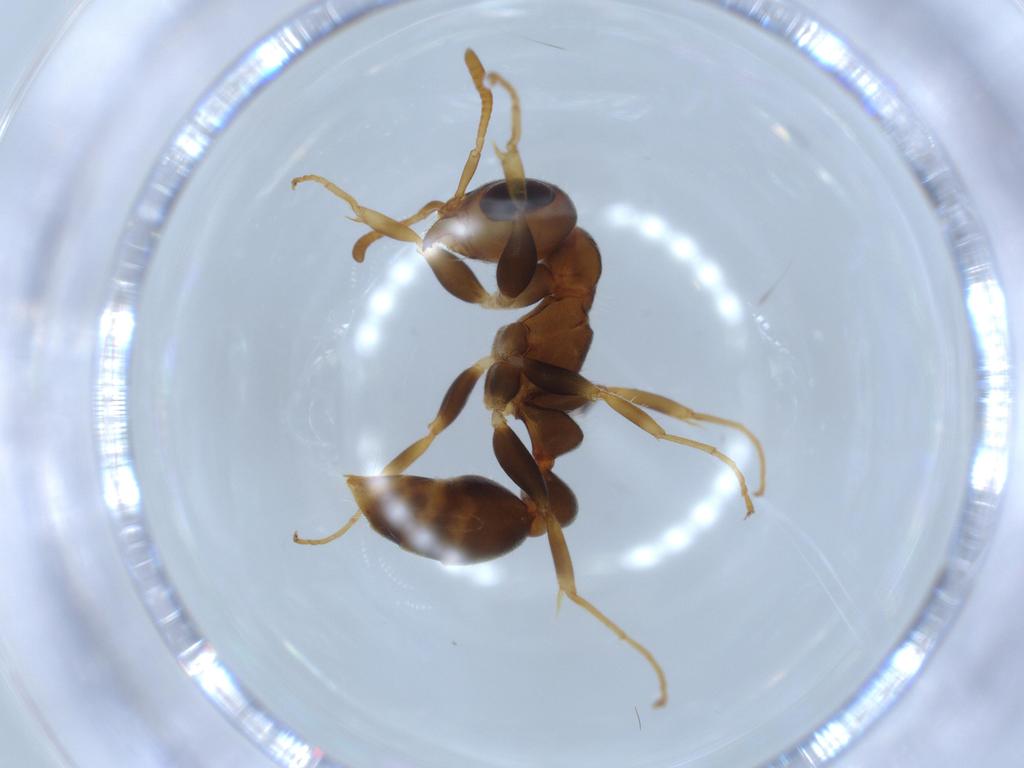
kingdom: Animalia
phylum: Arthropoda
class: Insecta
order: Hymenoptera
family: Formicidae
